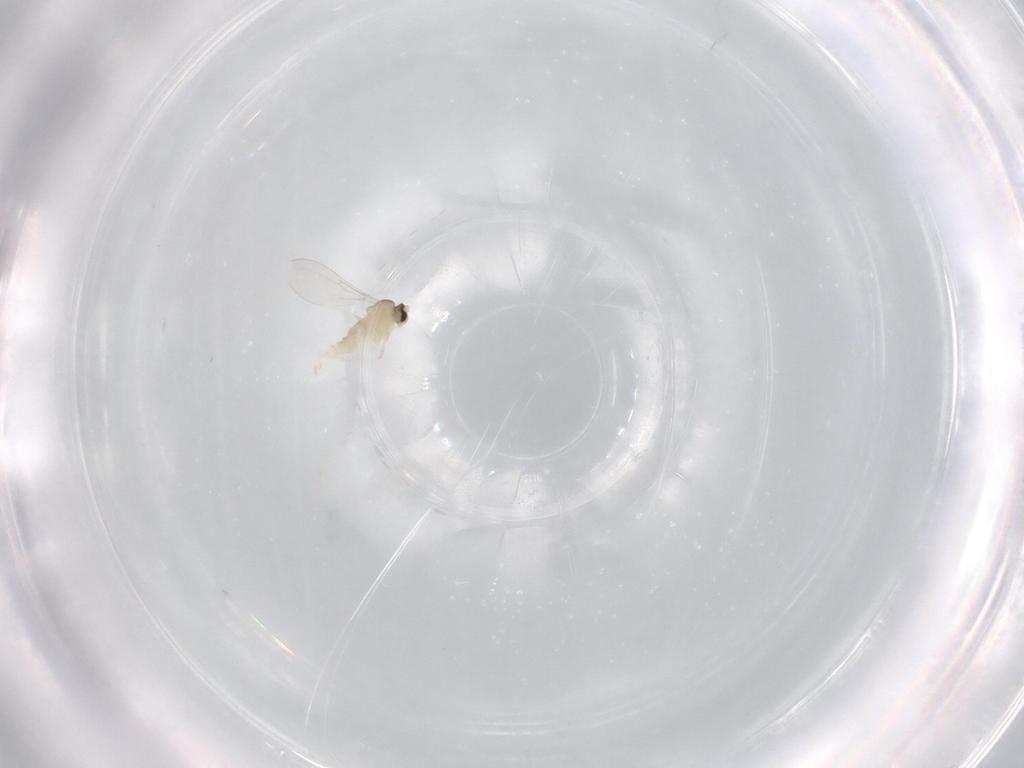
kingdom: Animalia
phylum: Arthropoda
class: Insecta
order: Diptera
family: Cecidomyiidae
